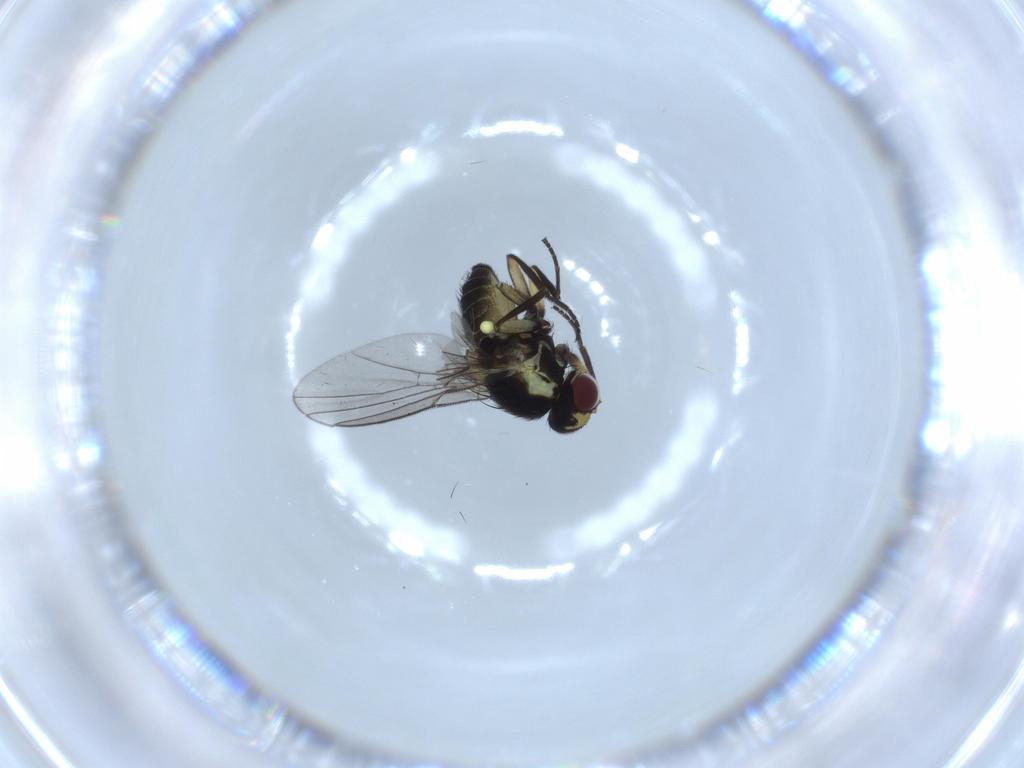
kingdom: Animalia
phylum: Arthropoda
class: Insecta
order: Diptera
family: Agromyzidae
